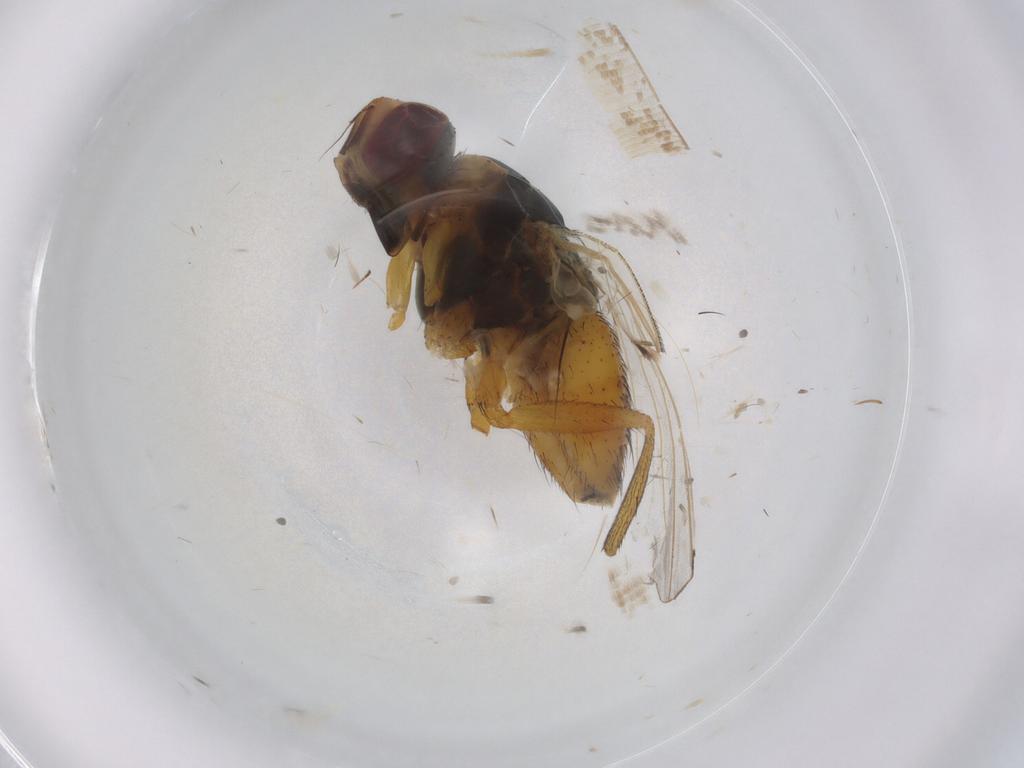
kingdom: Animalia
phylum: Arthropoda
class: Insecta
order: Diptera
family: Muscidae
